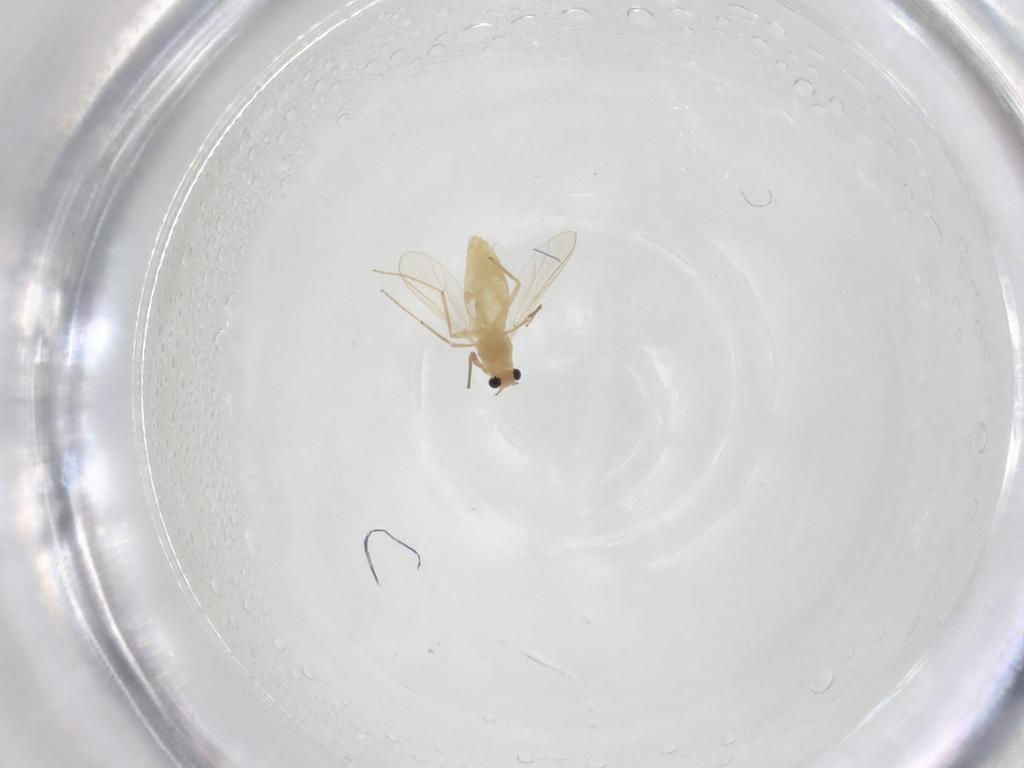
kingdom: Animalia
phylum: Arthropoda
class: Insecta
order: Diptera
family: Chironomidae
